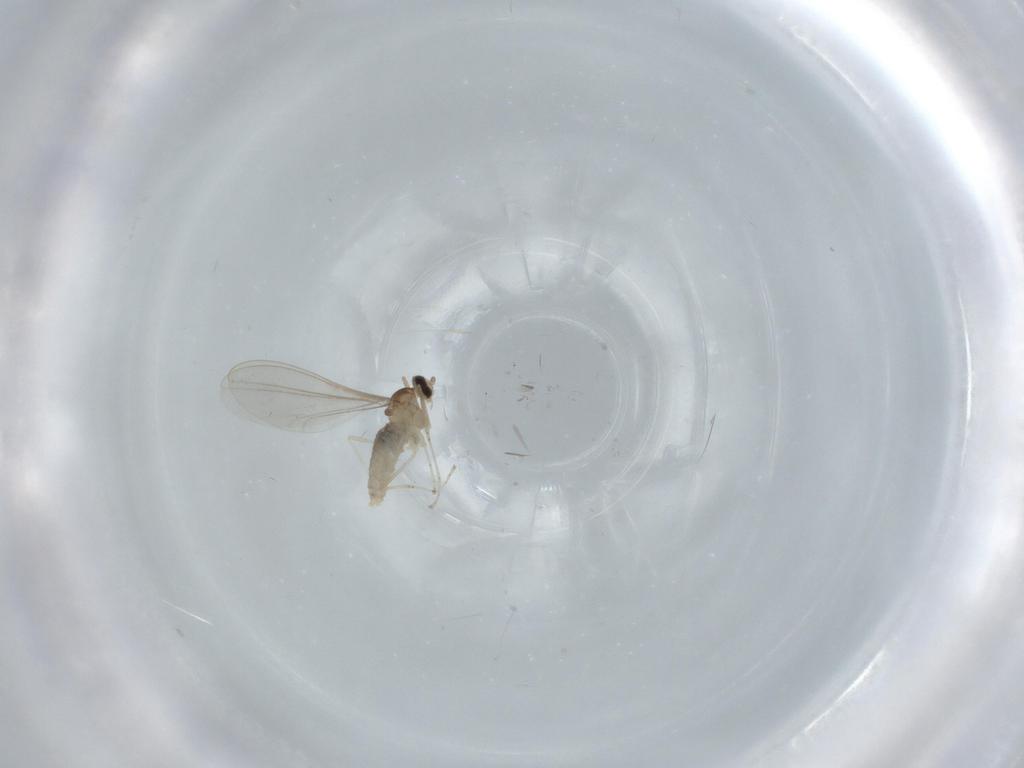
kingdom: Animalia
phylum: Arthropoda
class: Insecta
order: Diptera
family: Cecidomyiidae
